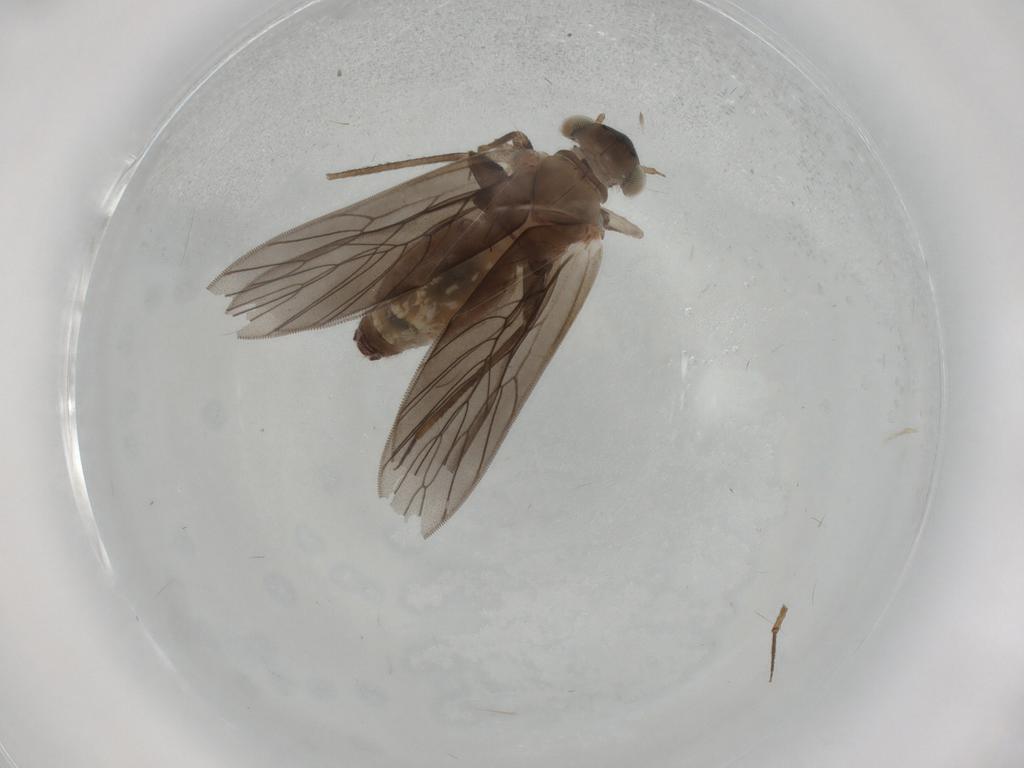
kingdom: Animalia
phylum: Arthropoda
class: Insecta
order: Psocodea
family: Lepidopsocidae
